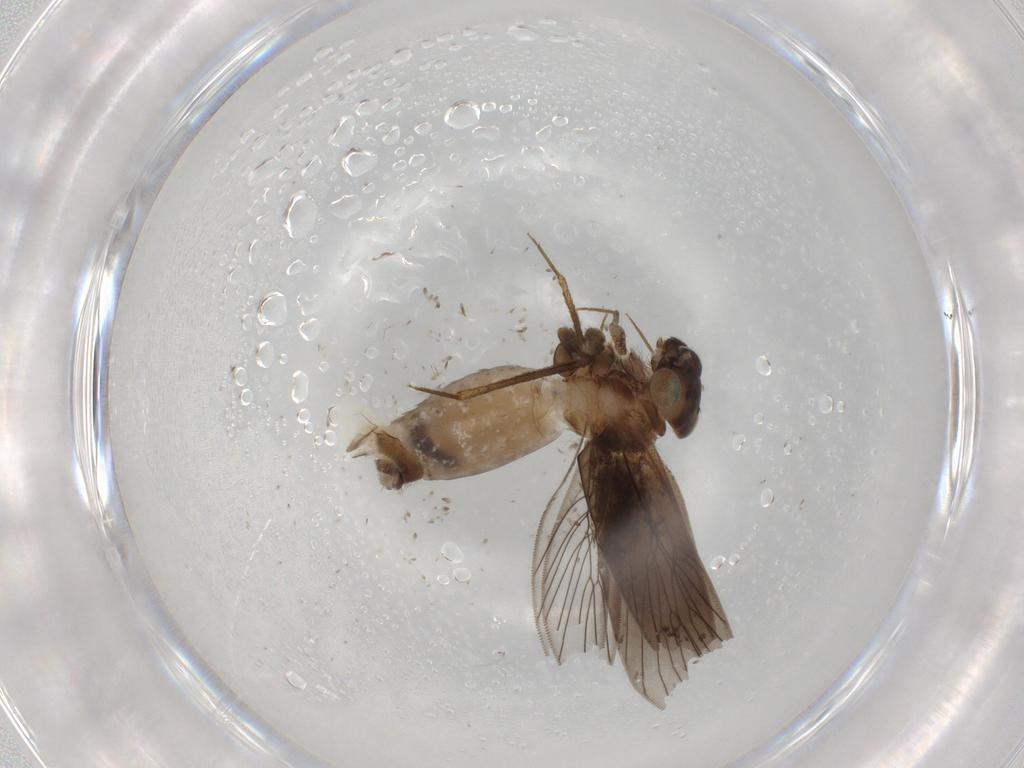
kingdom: Animalia
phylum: Arthropoda
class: Insecta
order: Psocodea
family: Lepidopsocidae
